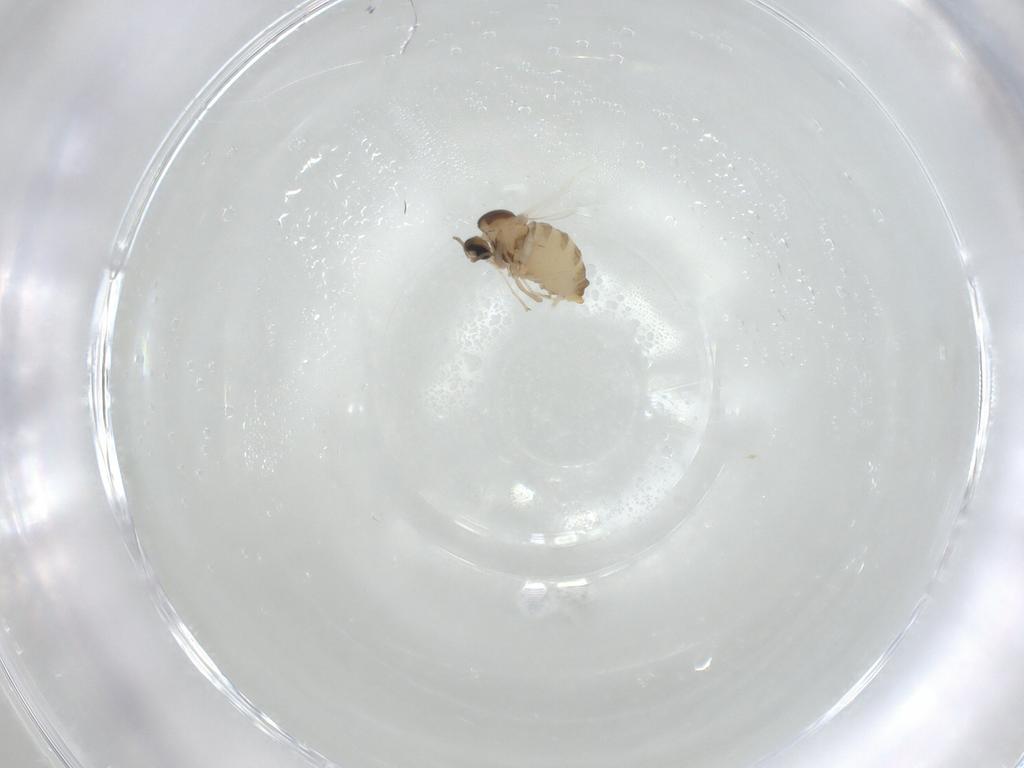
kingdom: Animalia
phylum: Arthropoda
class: Insecta
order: Diptera
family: Cecidomyiidae
